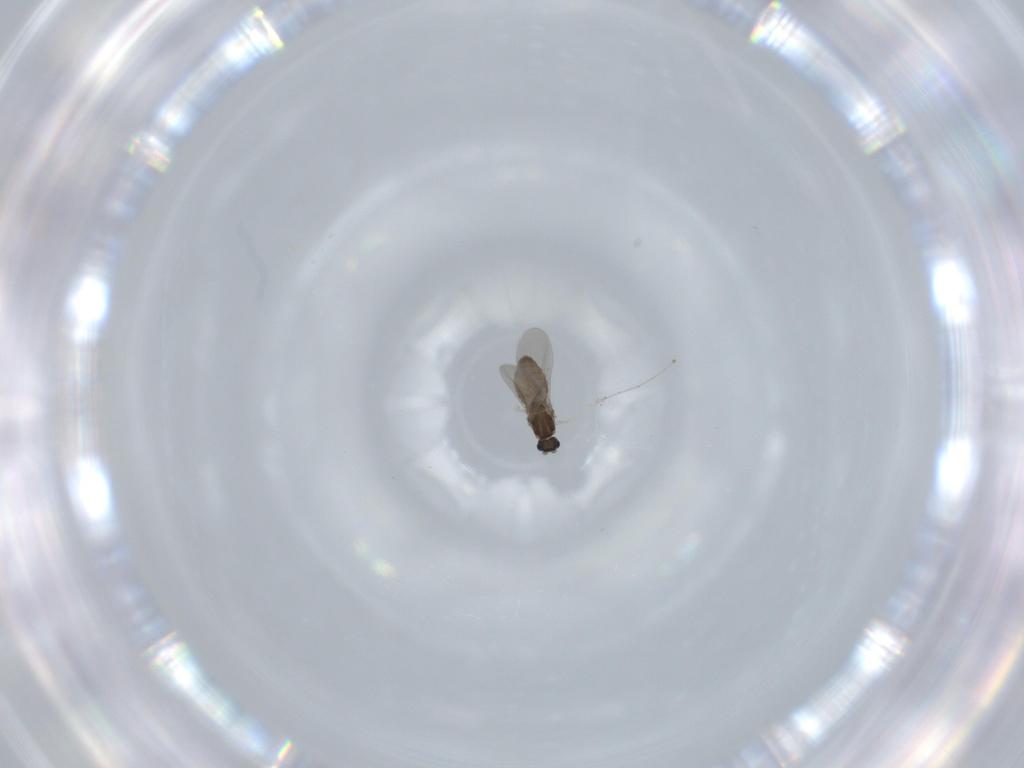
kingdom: Animalia
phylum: Arthropoda
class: Insecta
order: Diptera
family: Cecidomyiidae
